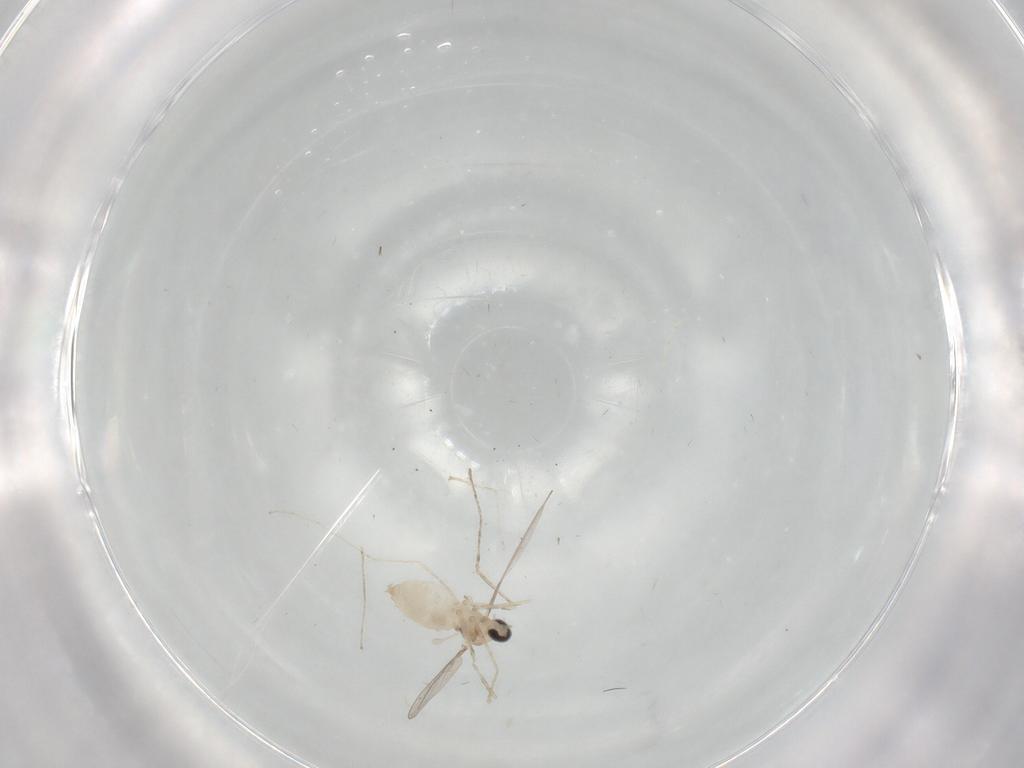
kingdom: Animalia
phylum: Arthropoda
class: Insecta
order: Diptera
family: Cecidomyiidae
